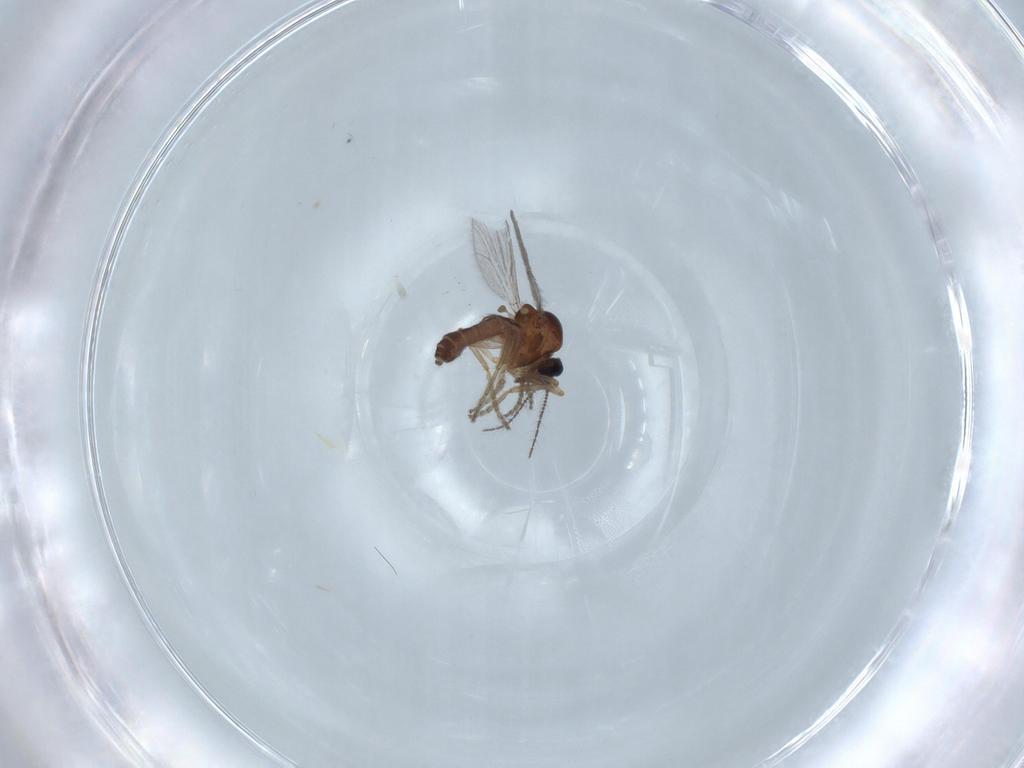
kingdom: Animalia
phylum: Arthropoda
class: Insecta
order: Diptera
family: Ceratopogonidae
